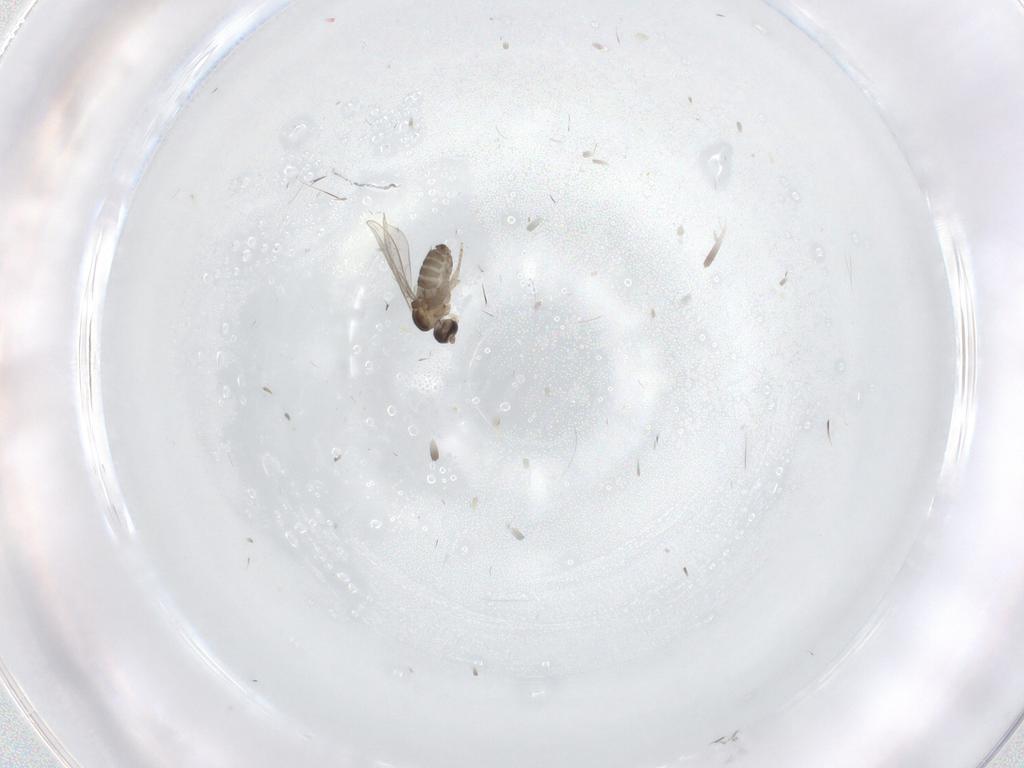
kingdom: Animalia
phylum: Arthropoda
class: Insecta
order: Diptera
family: Cecidomyiidae
